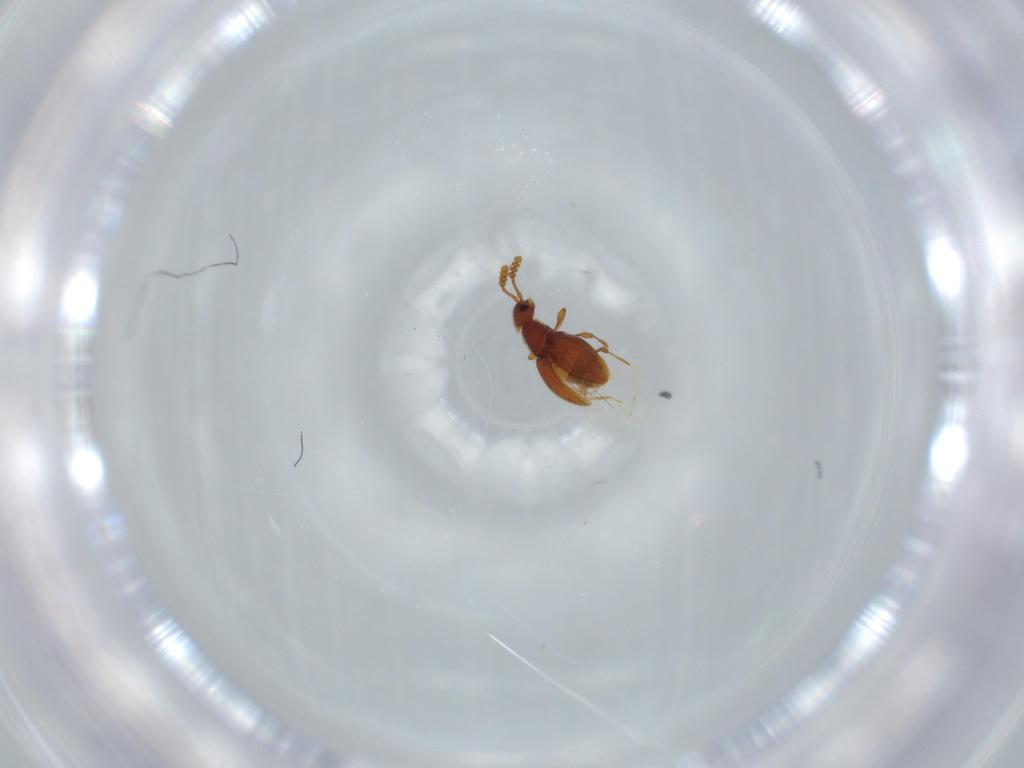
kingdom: Animalia
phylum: Arthropoda
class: Insecta
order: Coleoptera
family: Staphylinidae
